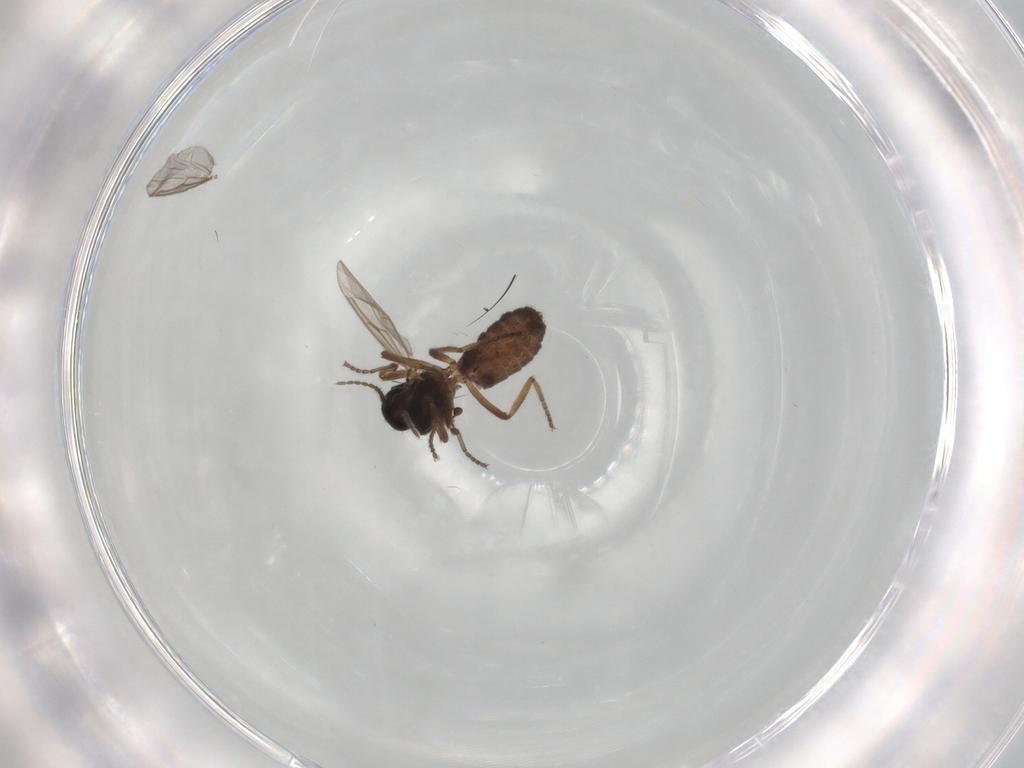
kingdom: Animalia
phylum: Arthropoda
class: Insecta
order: Diptera
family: Ceratopogonidae
